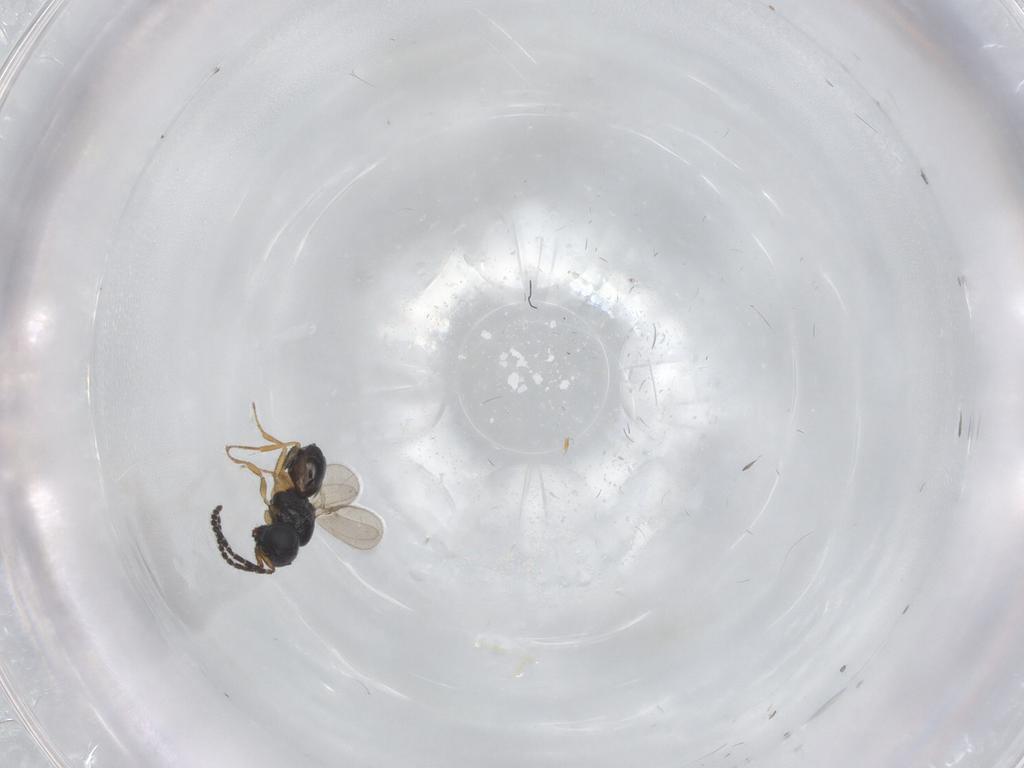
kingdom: Animalia
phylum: Arthropoda
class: Insecta
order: Hymenoptera
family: Scelionidae
